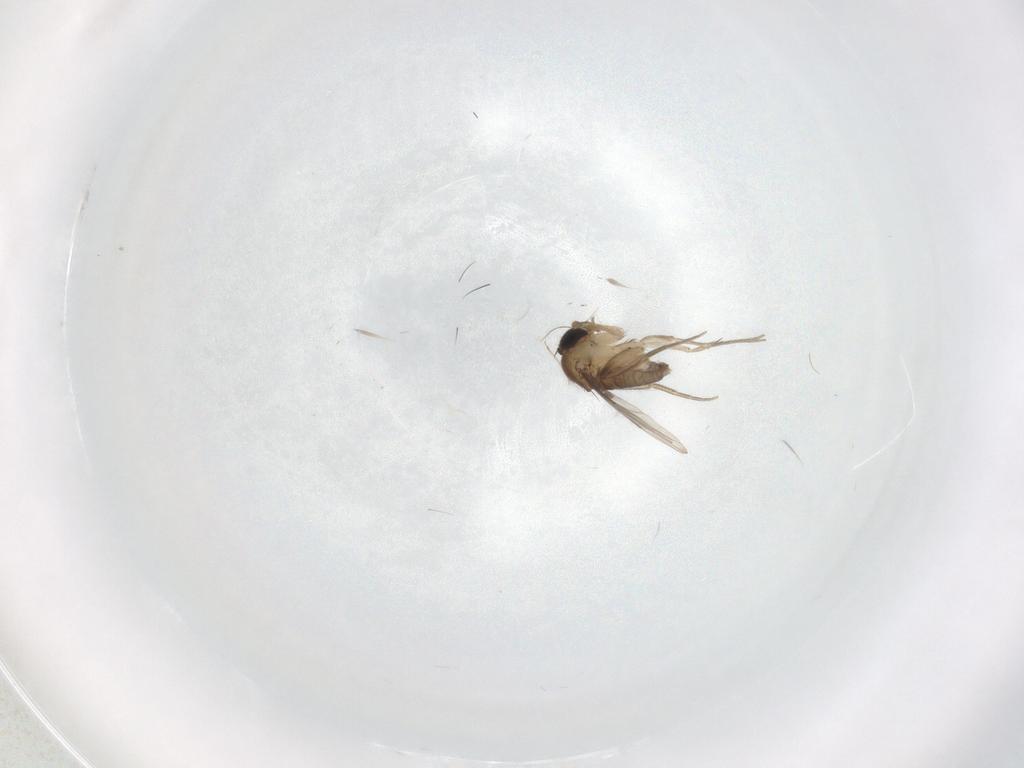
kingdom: Animalia
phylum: Arthropoda
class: Insecta
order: Diptera
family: Phoridae
